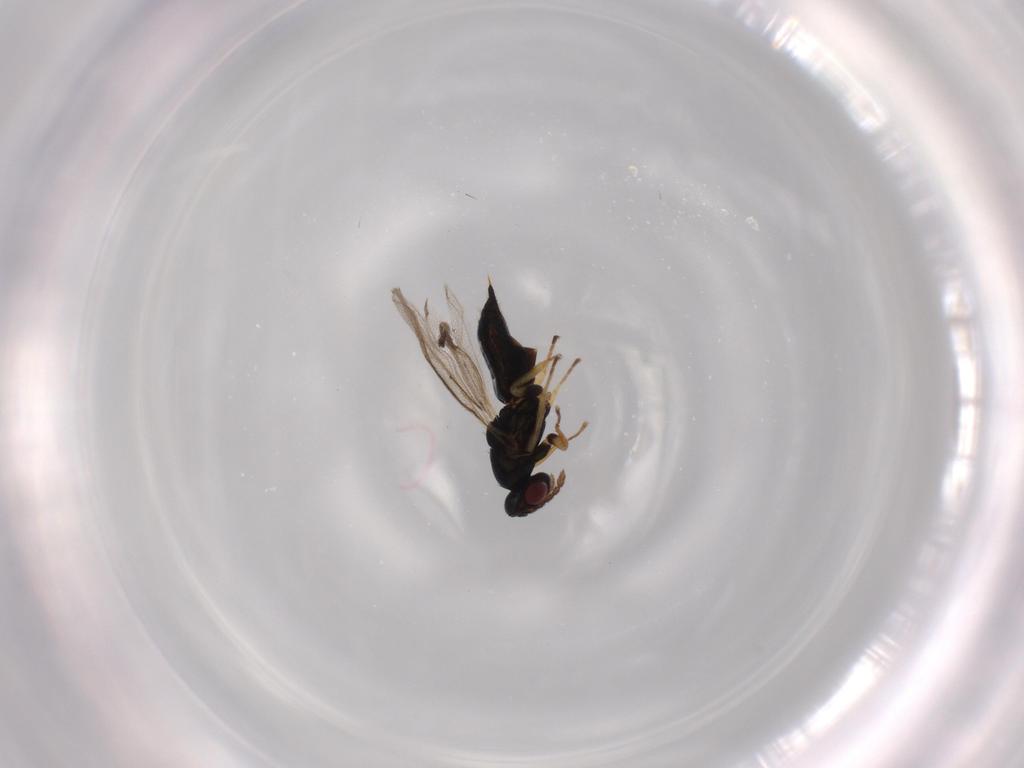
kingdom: Animalia
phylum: Arthropoda
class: Insecta
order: Hymenoptera
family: Eulophidae
